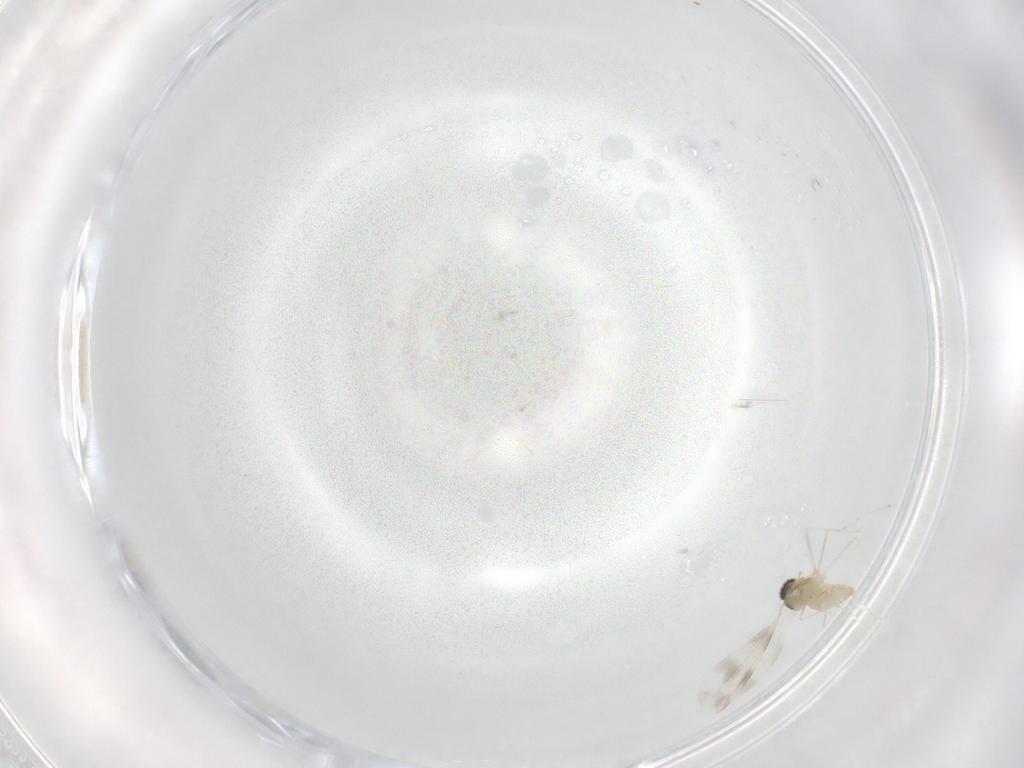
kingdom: Animalia
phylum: Arthropoda
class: Insecta
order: Diptera
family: Cecidomyiidae
